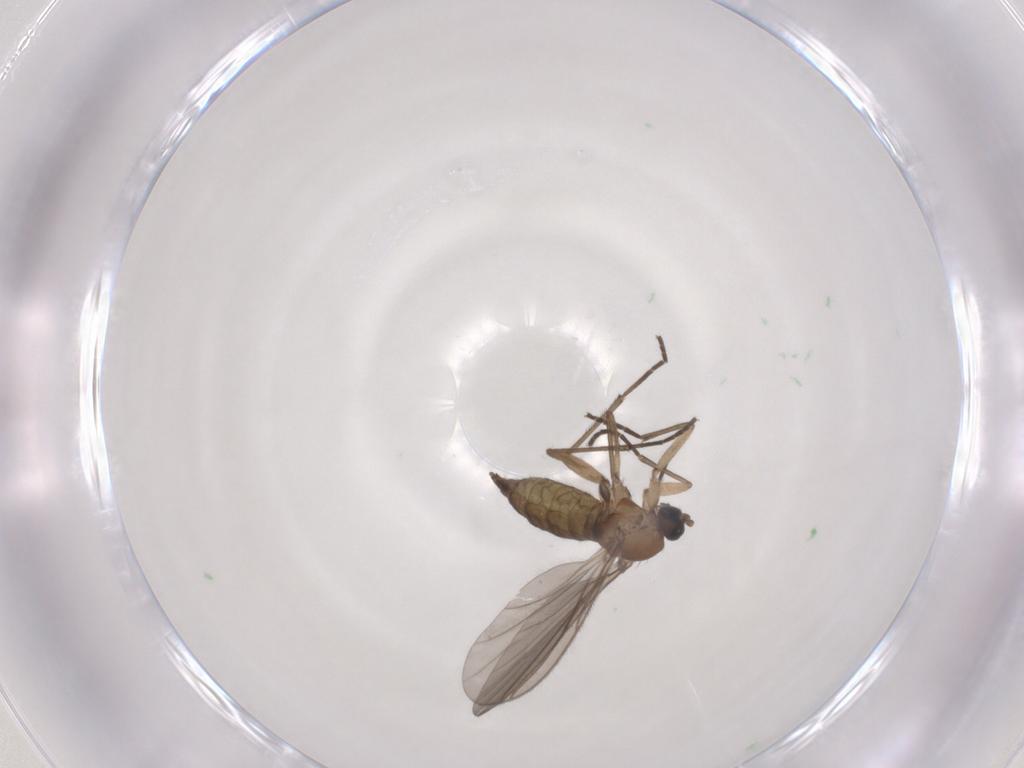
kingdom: Animalia
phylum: Arthropoda
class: Insecta
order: Diptera
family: Sciaridae
